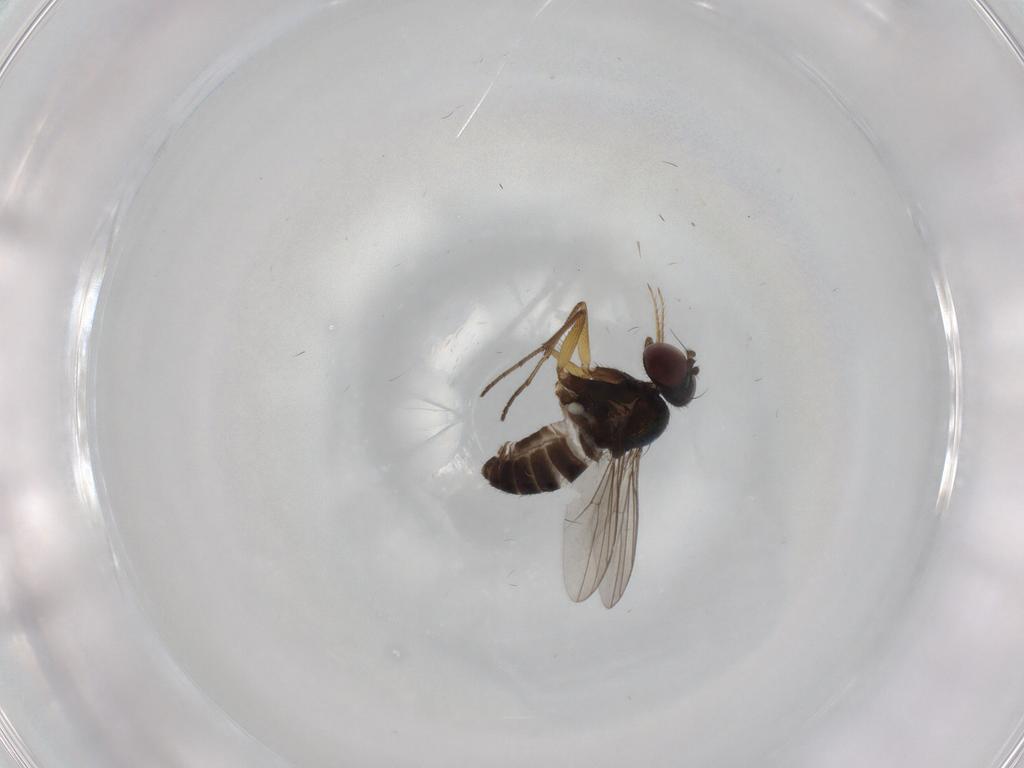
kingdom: Animalia
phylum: Arthropoda
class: Insecta
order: Diptera
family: Dolichopodidae
